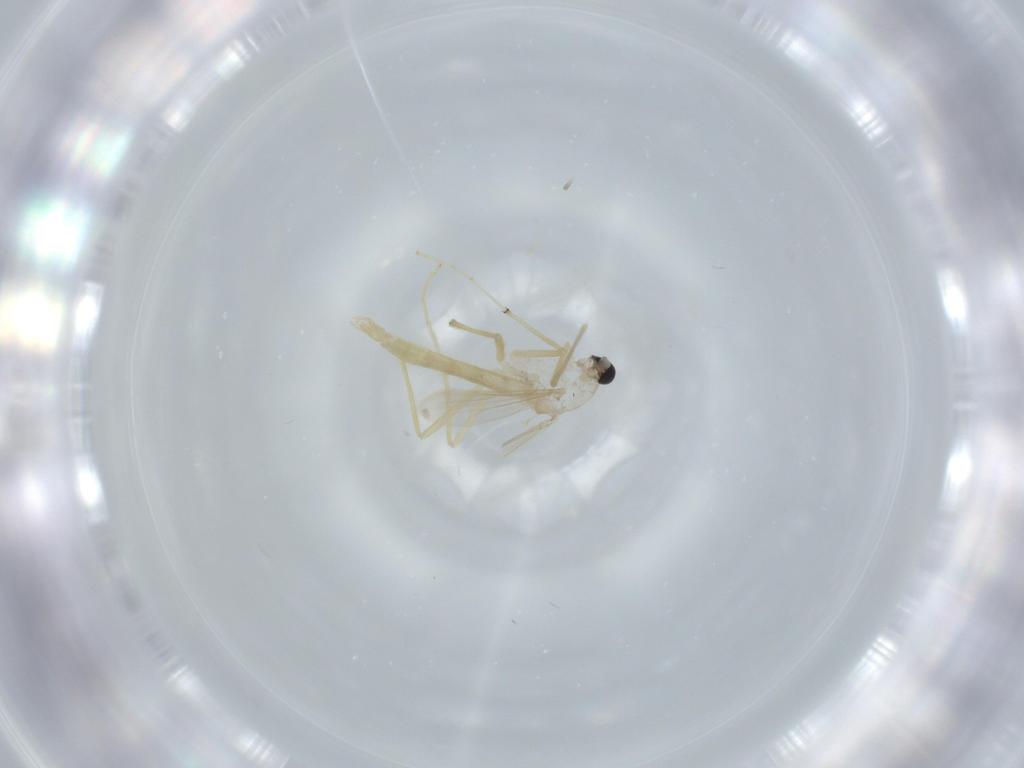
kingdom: Animalia
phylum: Arthropoda
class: Insecta
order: Diptera
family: Chironomidae
